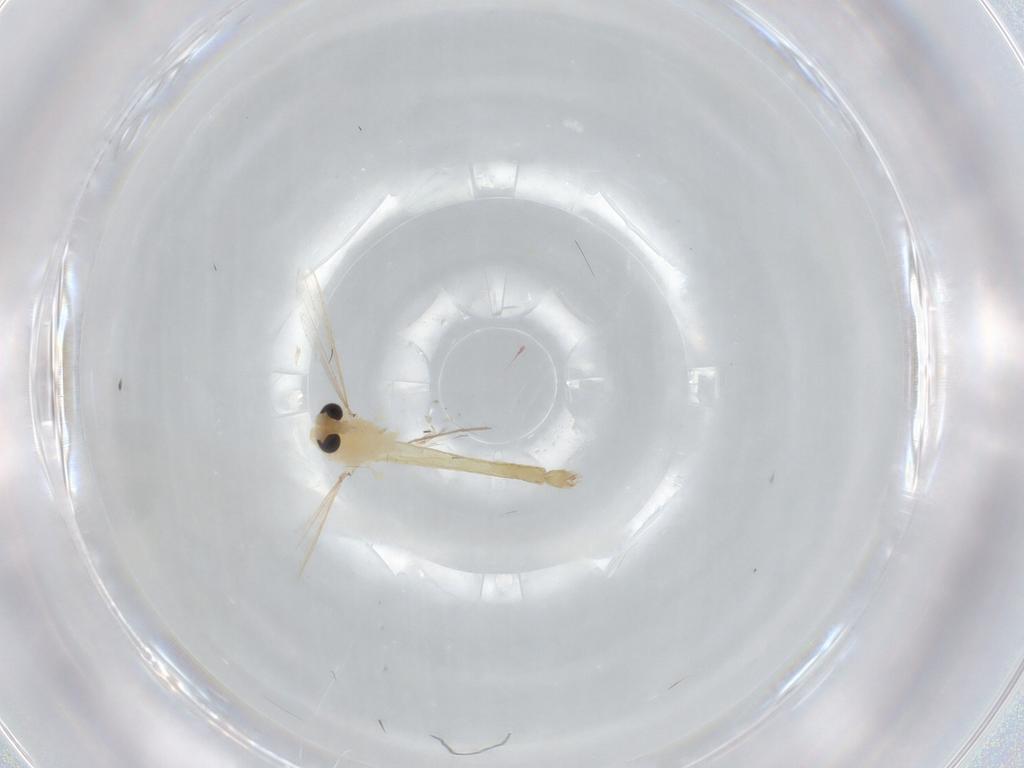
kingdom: Animalia
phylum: Arthropoda
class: Insecta
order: Diptera
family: Chironomidae
